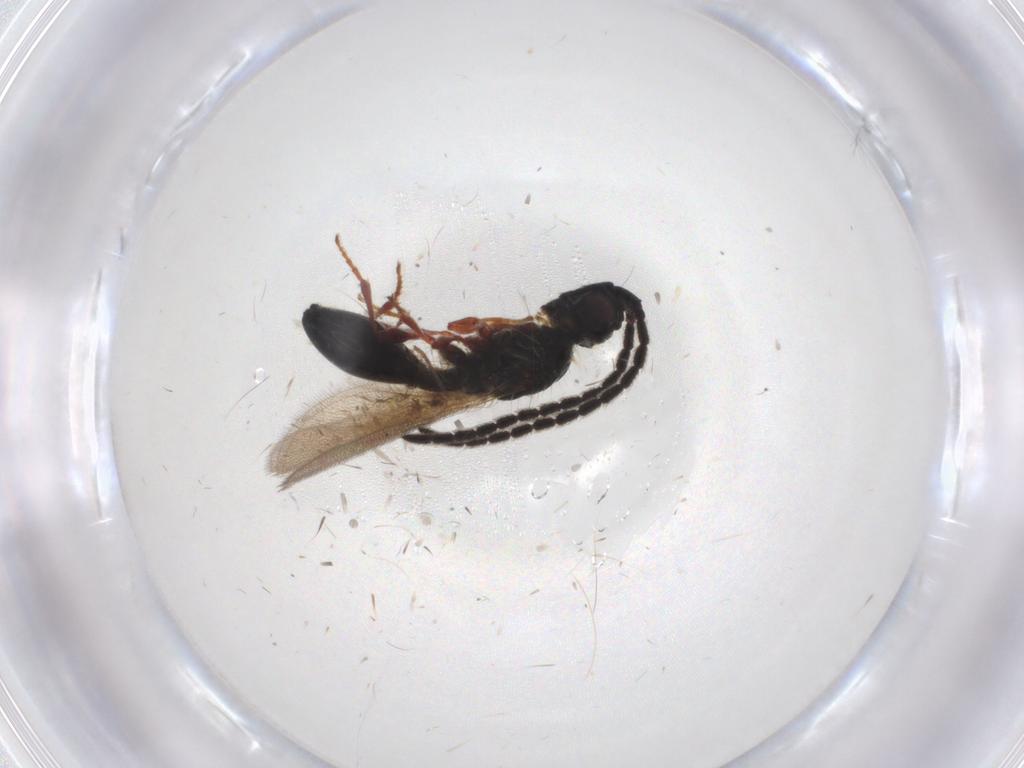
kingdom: Animalia
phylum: Arthropoda
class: Insecta
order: Hymenoptera
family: Diapriidae
